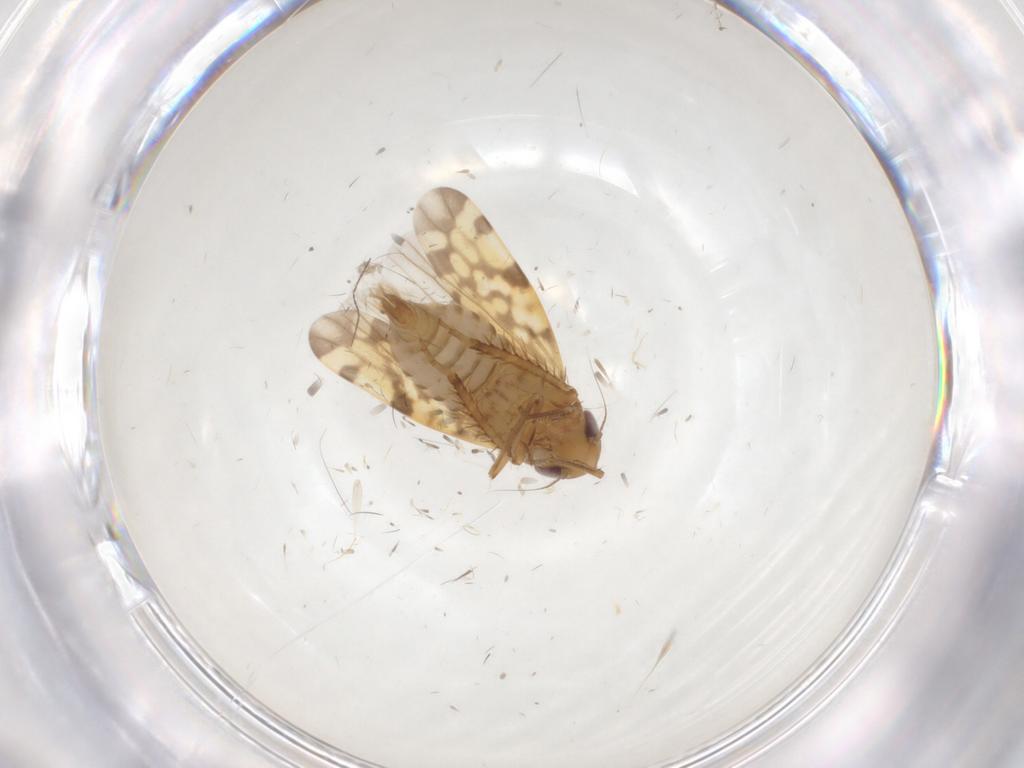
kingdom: Animalia
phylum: Arthropoda
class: Insecta
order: Hemiptera
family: Cicadellidae
